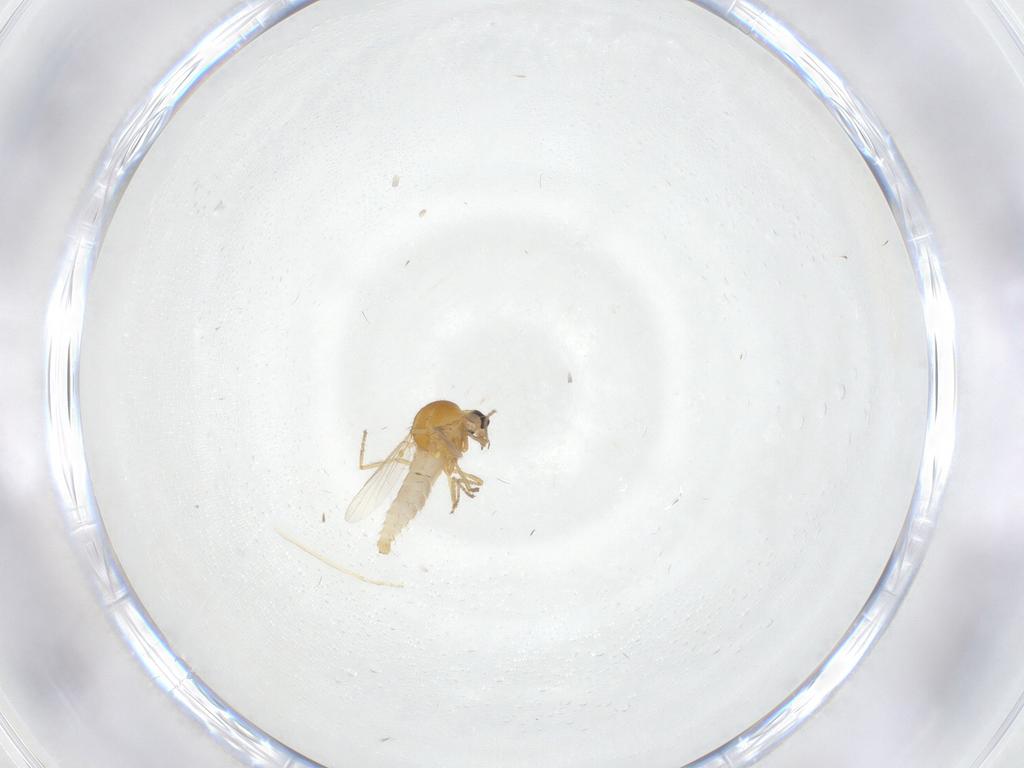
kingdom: Animalia
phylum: Arthropoda
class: Insecta
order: Diptera
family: Ceratopogonidae
